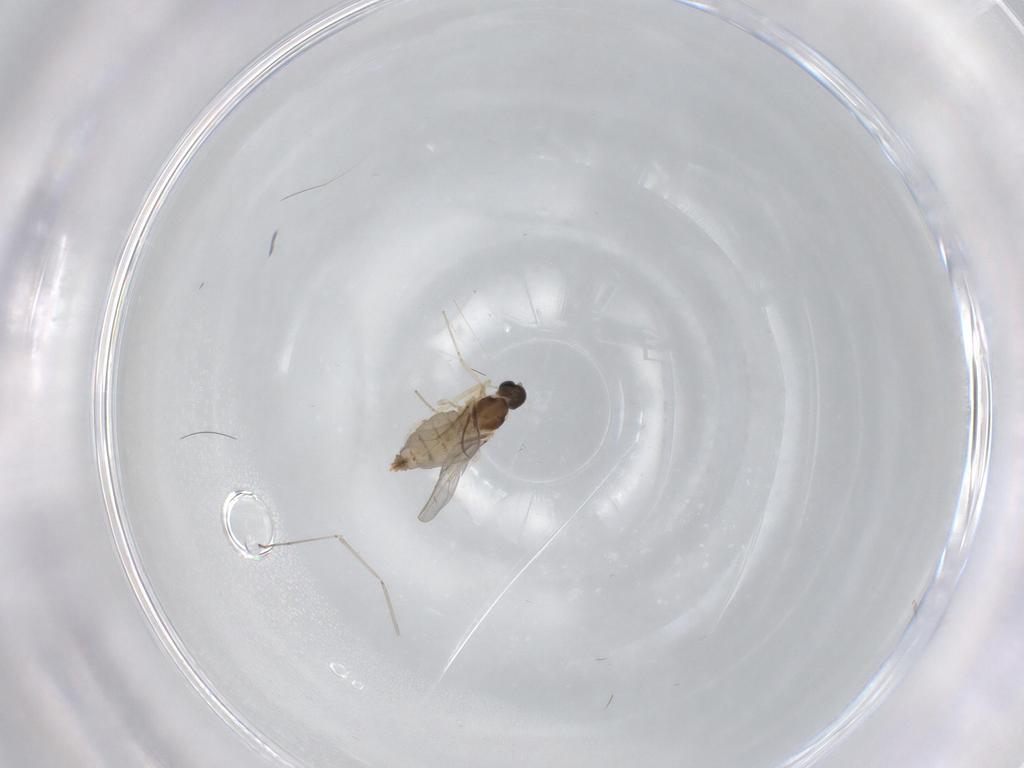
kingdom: Animalia
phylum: Arthropoda
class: Insecta
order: Diptera
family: Cecidomyiidae
